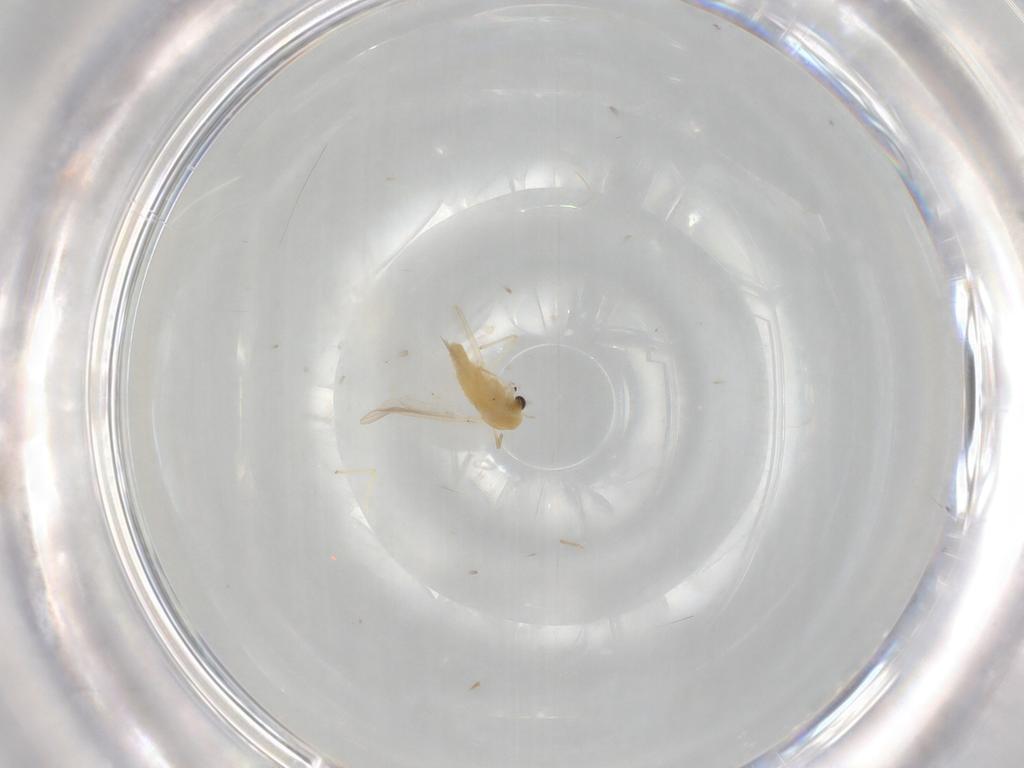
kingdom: Animalia
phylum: Arthropoda
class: Insecta
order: Diptera
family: Chironomidae
